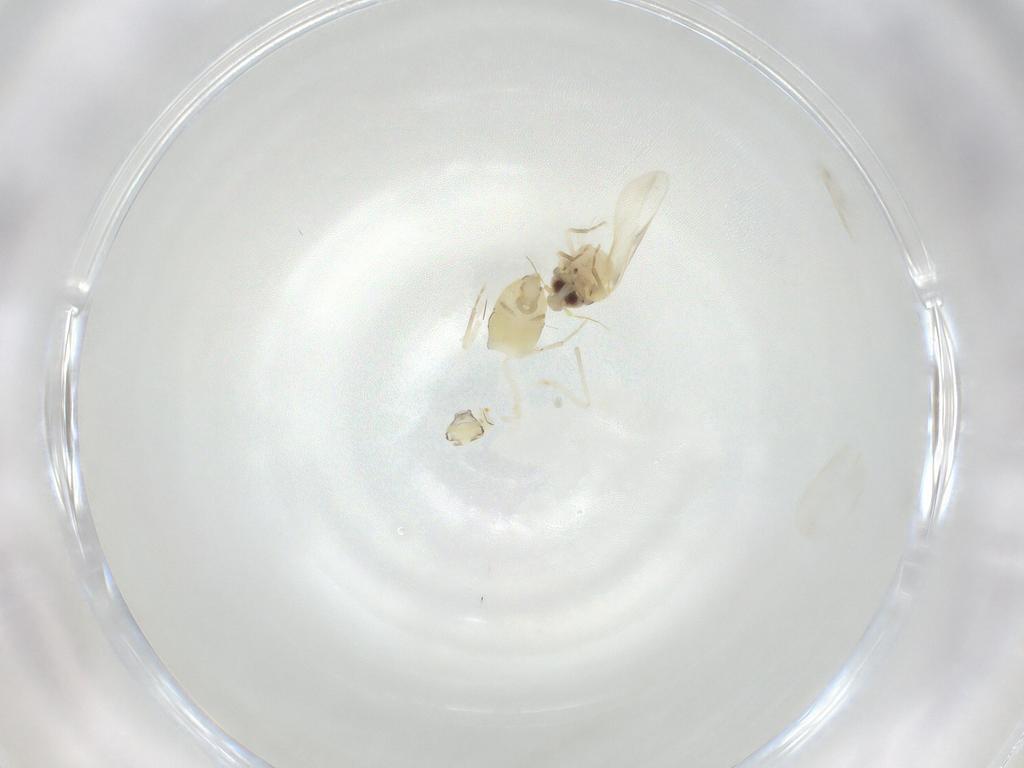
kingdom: Animalia
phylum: Arthropoda
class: Insecta
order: Hemiptera
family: Aleyrodidae
